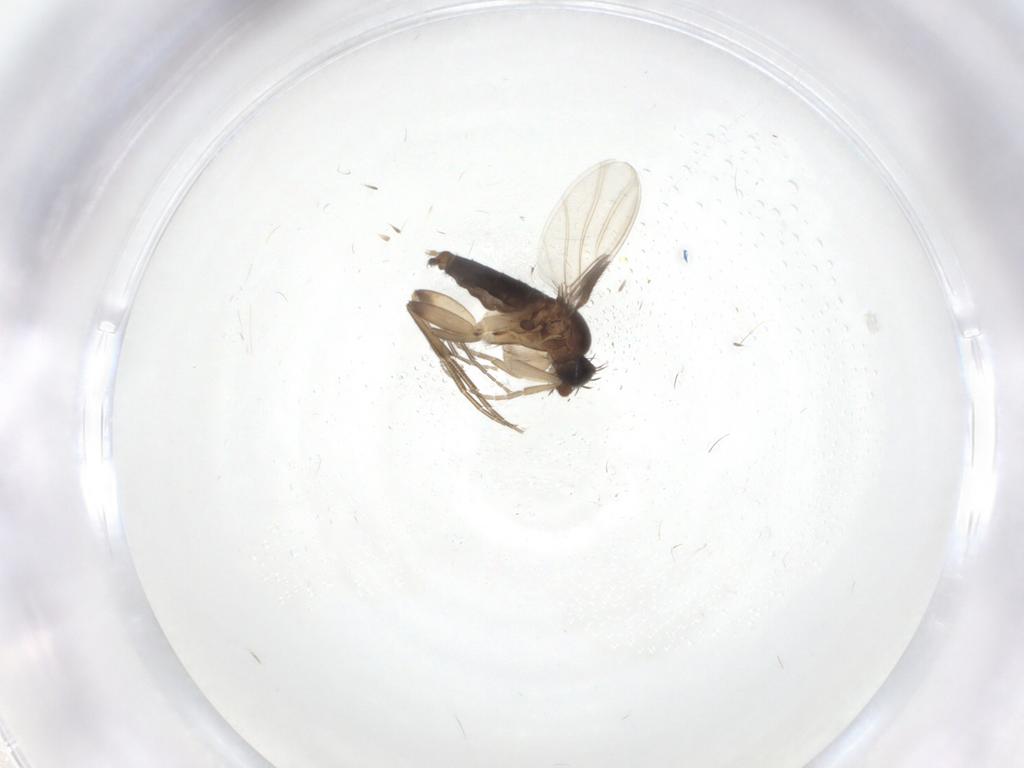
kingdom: Animalia
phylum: Arthropoda
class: Insecta
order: Diptera
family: Phoridae
